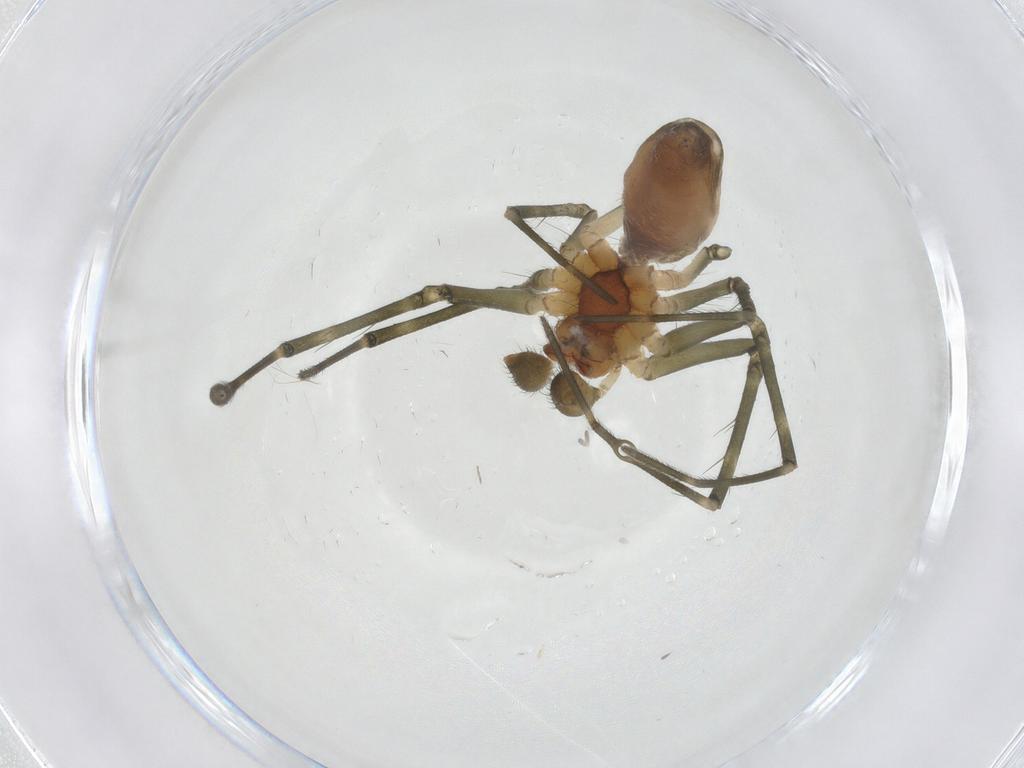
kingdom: Animalia
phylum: Arthropoda
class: Arachnida
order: Araneae
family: Linyphiidae
